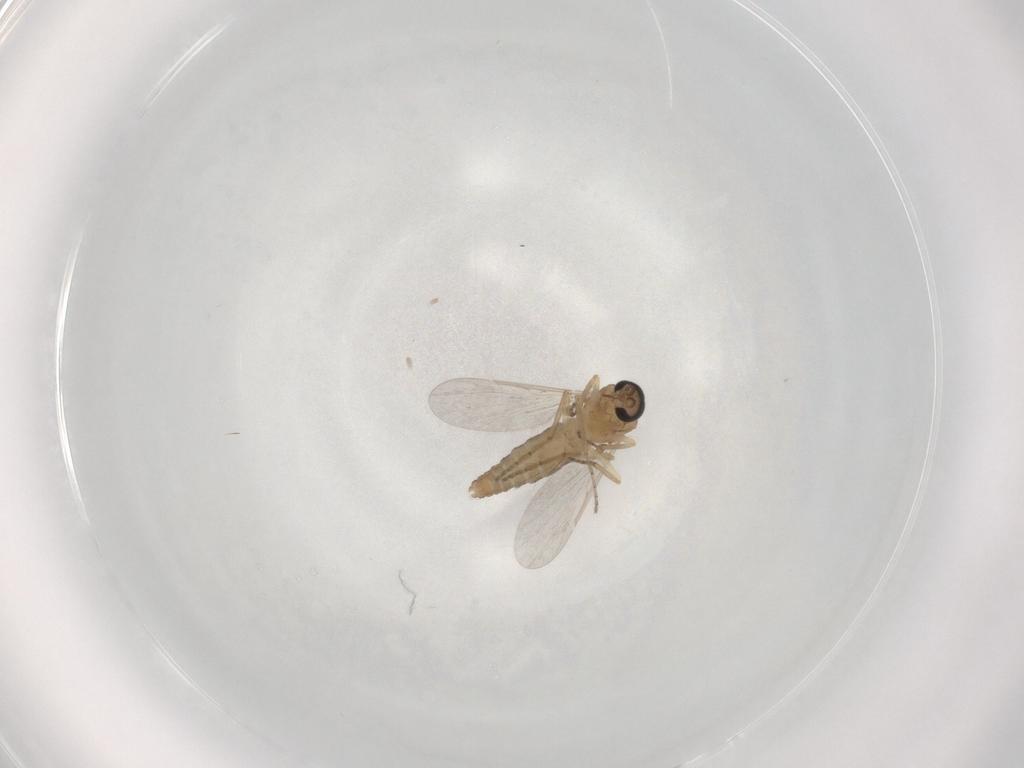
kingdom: Animalia
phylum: Arthropoda
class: Insecta
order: Diptera
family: Ceratopogonidae
